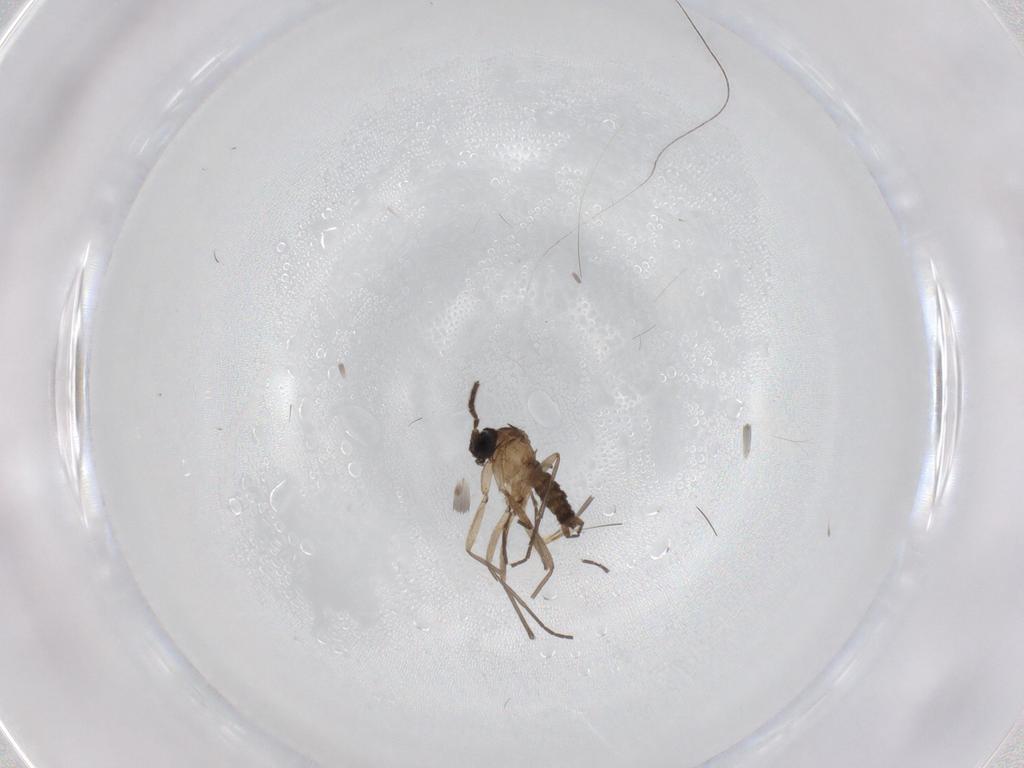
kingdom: Animalia
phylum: Arthropoda
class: Insecta
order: Diptera
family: Sciaridae
